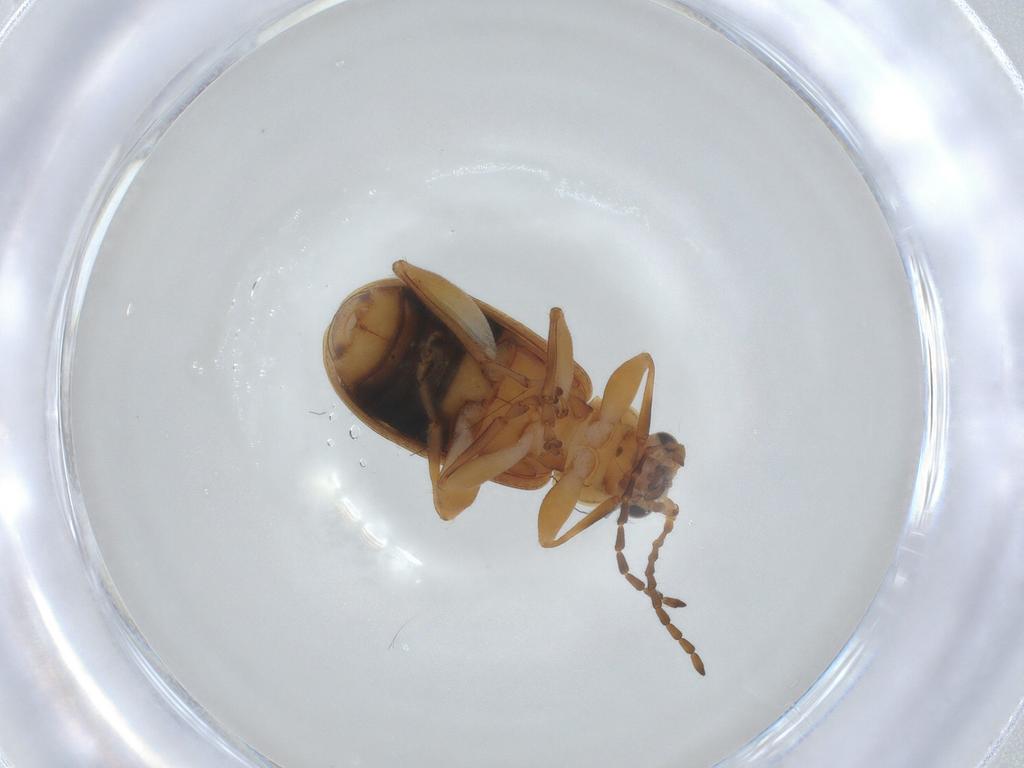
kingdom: Animalia
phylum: Arthropoda
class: Insecta
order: Coleoptera
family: Chrysomelidae
